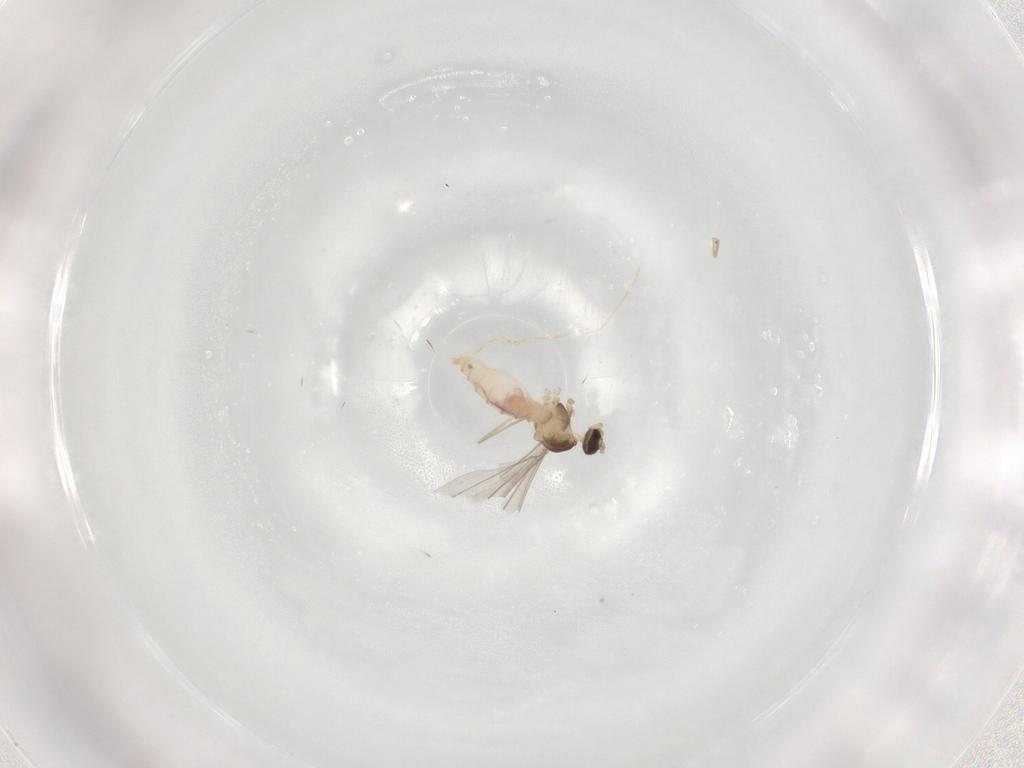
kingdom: Animalia
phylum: Arthropoda
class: Insecta
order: Diptera
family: Cecidomyiidae
